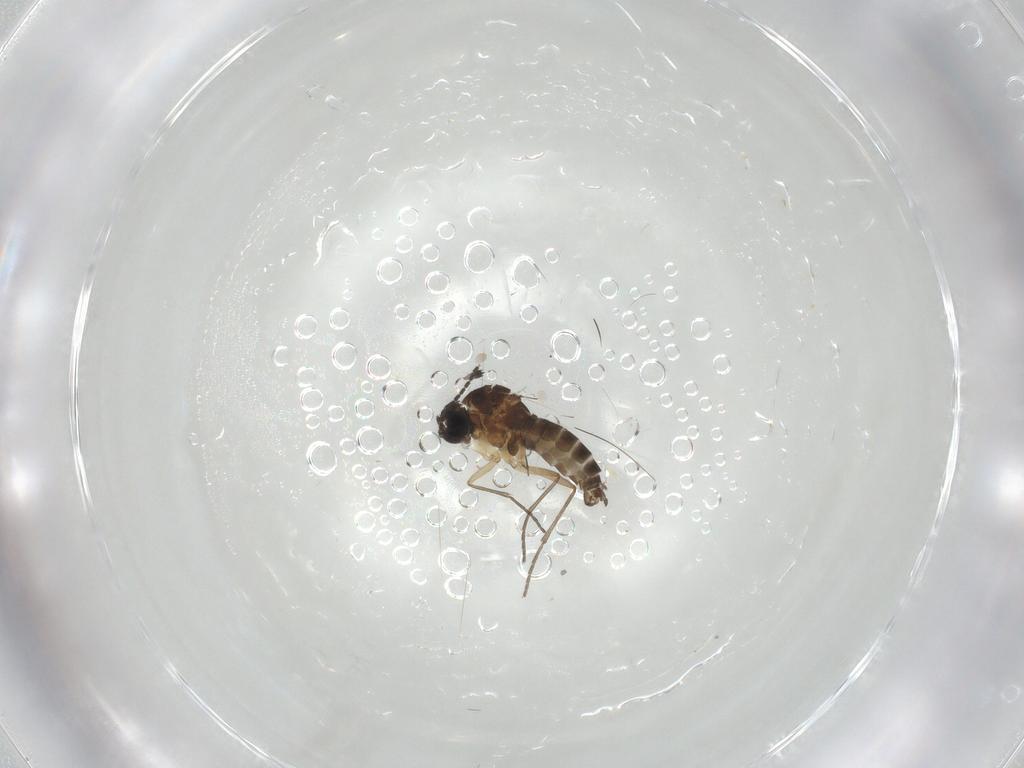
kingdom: Animalia
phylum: Arthropoda
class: Insecta
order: Diptera
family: Sciaridae
